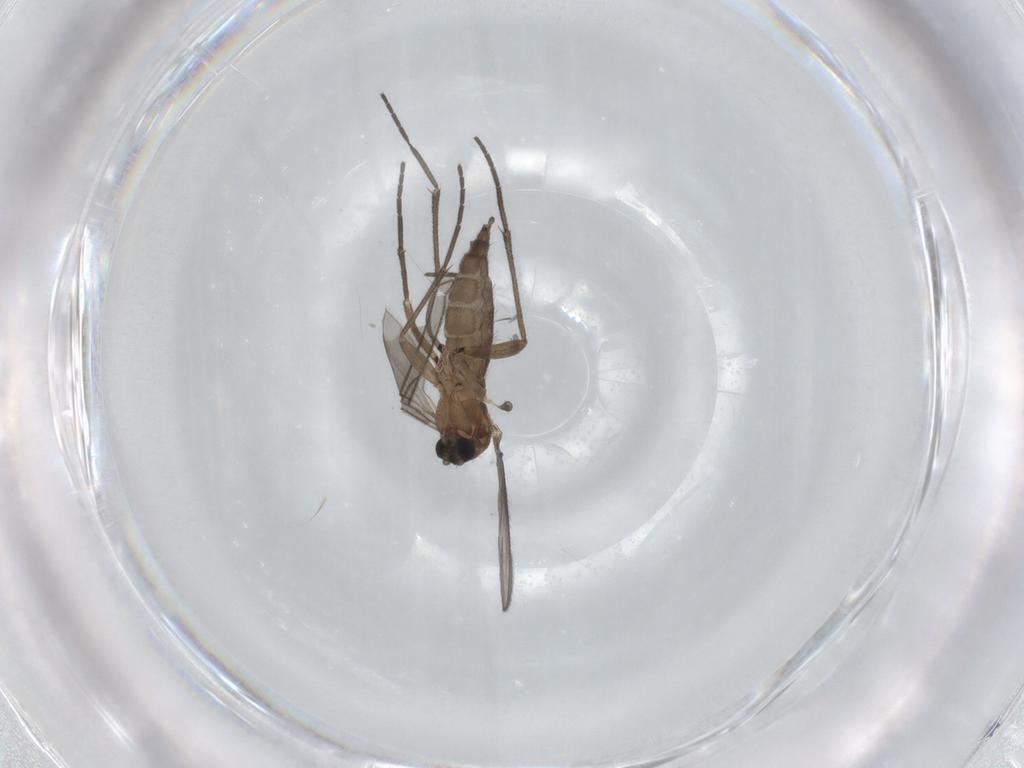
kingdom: Animalia
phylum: Arthropoda
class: Insecta
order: Diptera
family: Sciaridae
